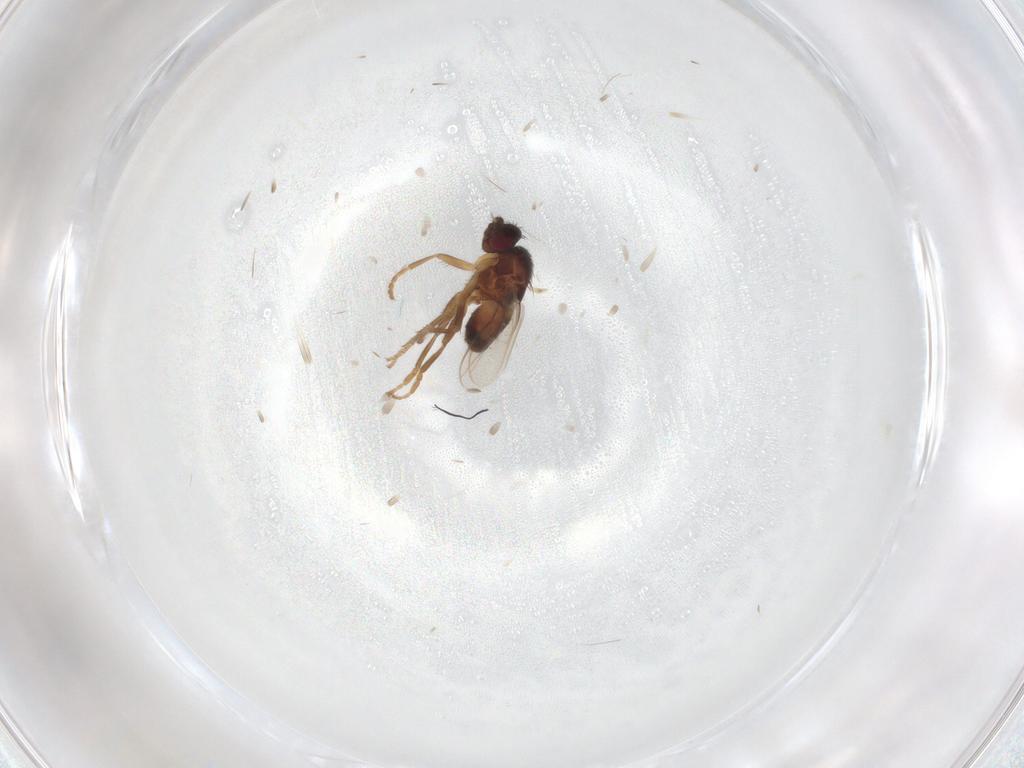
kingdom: Animalia
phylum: Arthropoda
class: Insecta
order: Diptera
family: Sphaeroceridae
